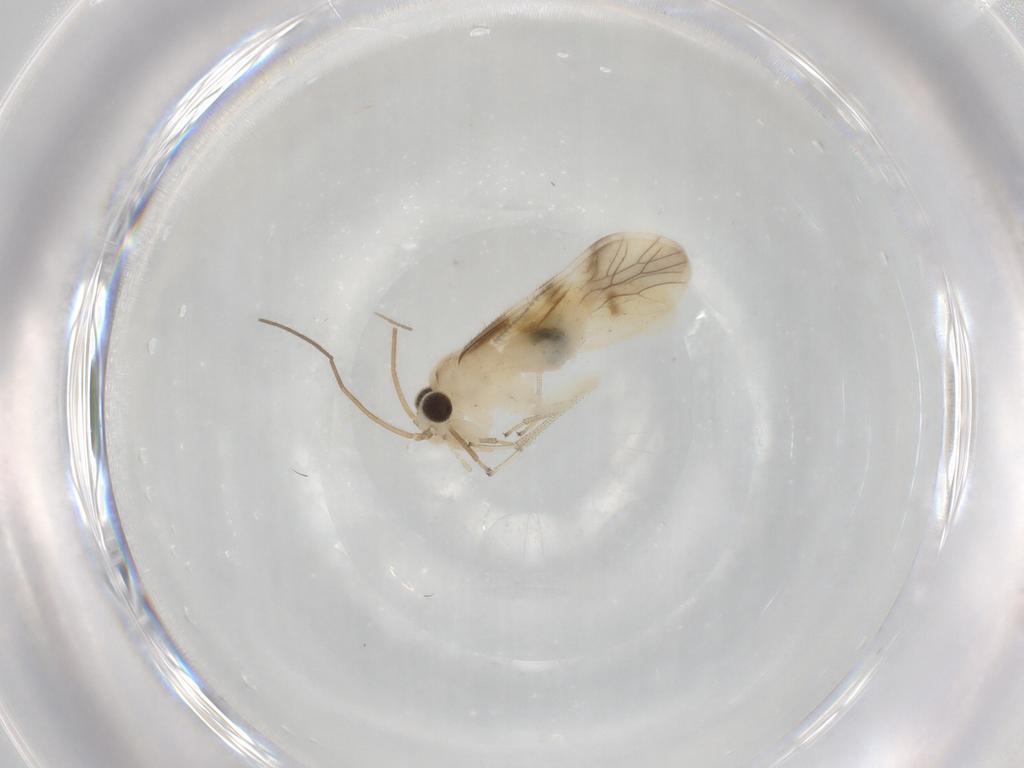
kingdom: Animalia
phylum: Arthropoda
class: Insecta
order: Psocodea
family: Caeciliusidae
